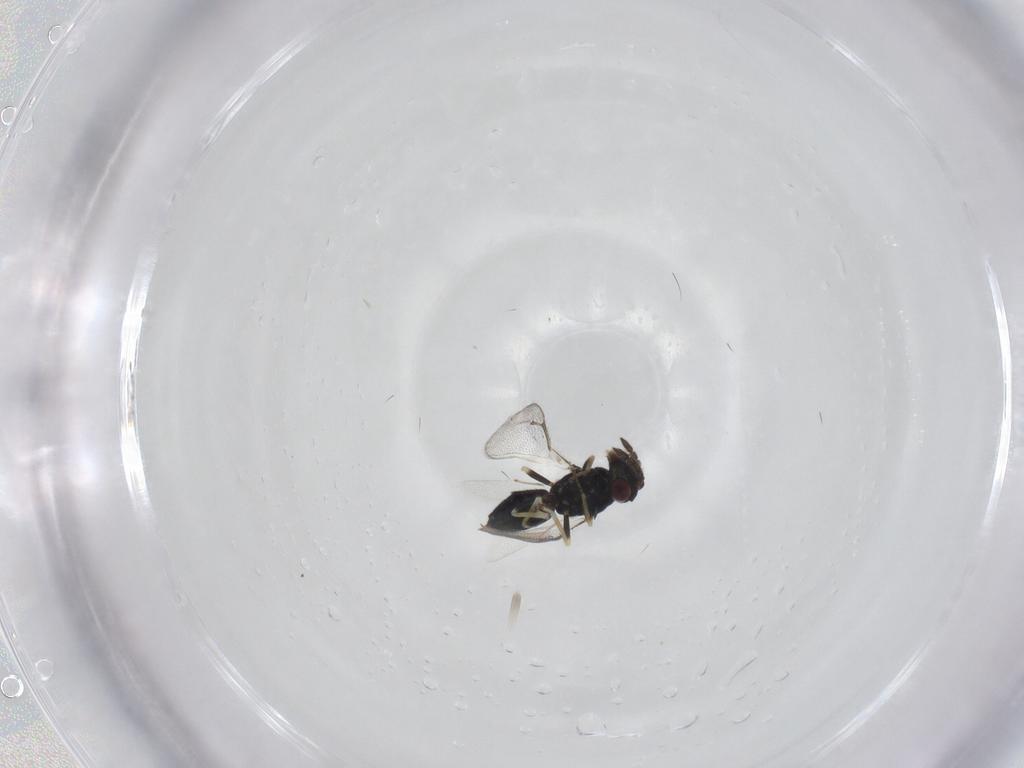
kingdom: Animalia
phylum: Arthropoda
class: Insecta
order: Hymenoptera
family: Eulophidae
